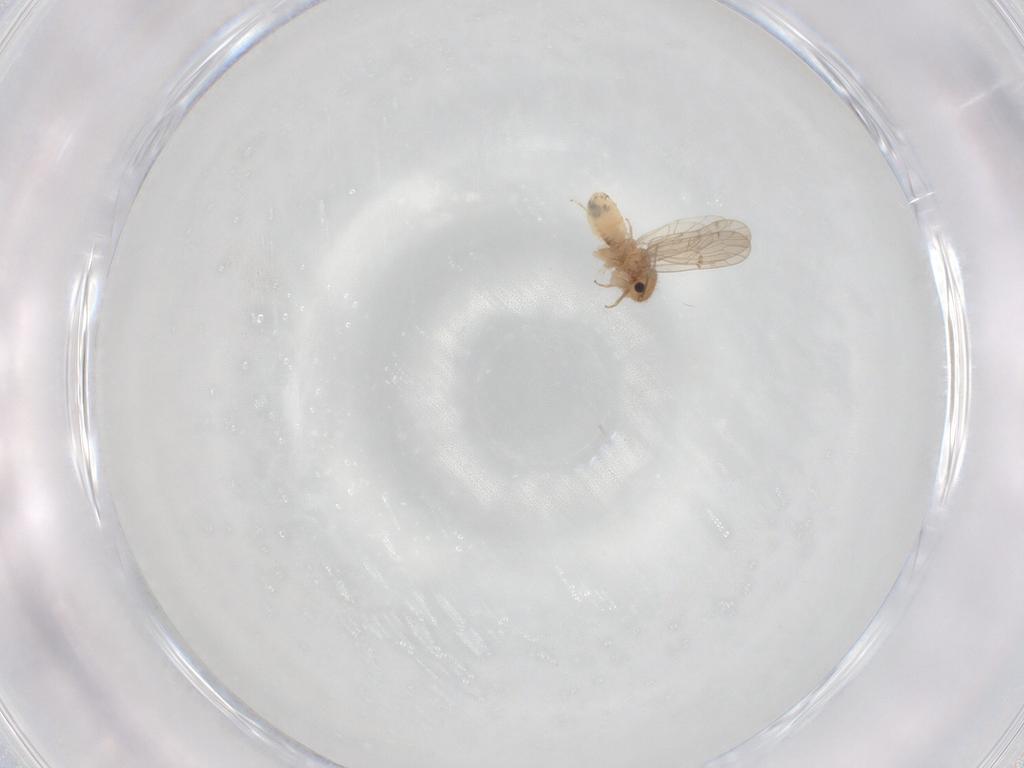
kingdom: Animalia
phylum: Arthropoda
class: Insecta
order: Psocodea
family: Ectopsocidae
